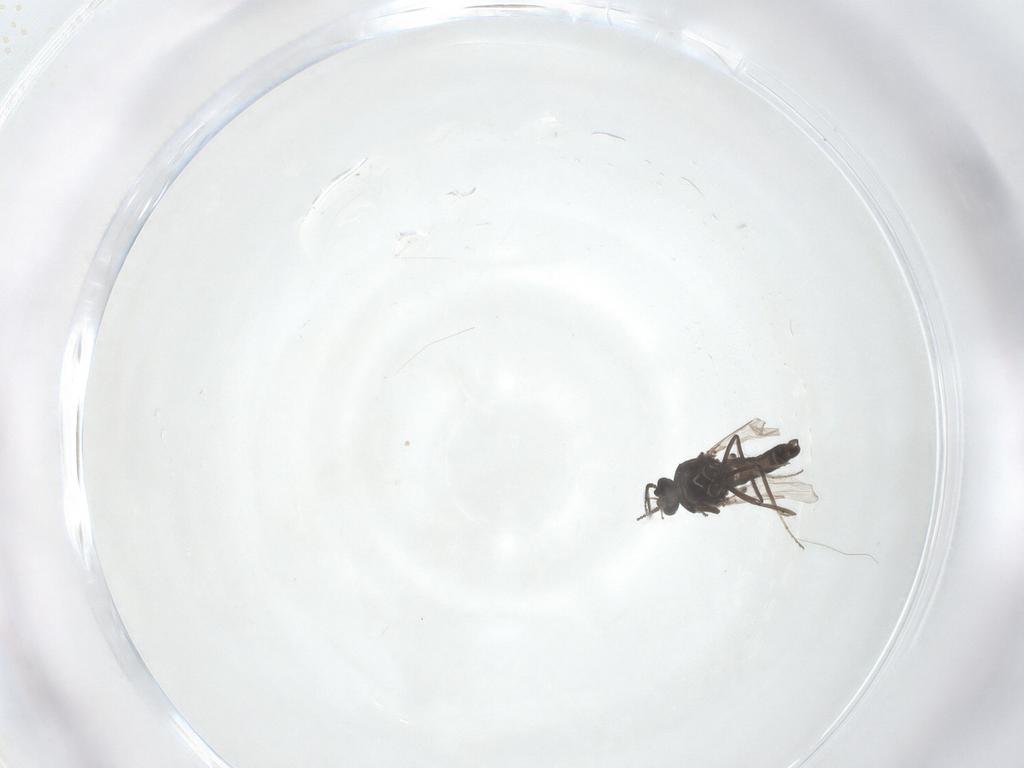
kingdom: Animalia
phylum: Arthropoda
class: Insecta
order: Diptera
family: Ceratopogonidae
